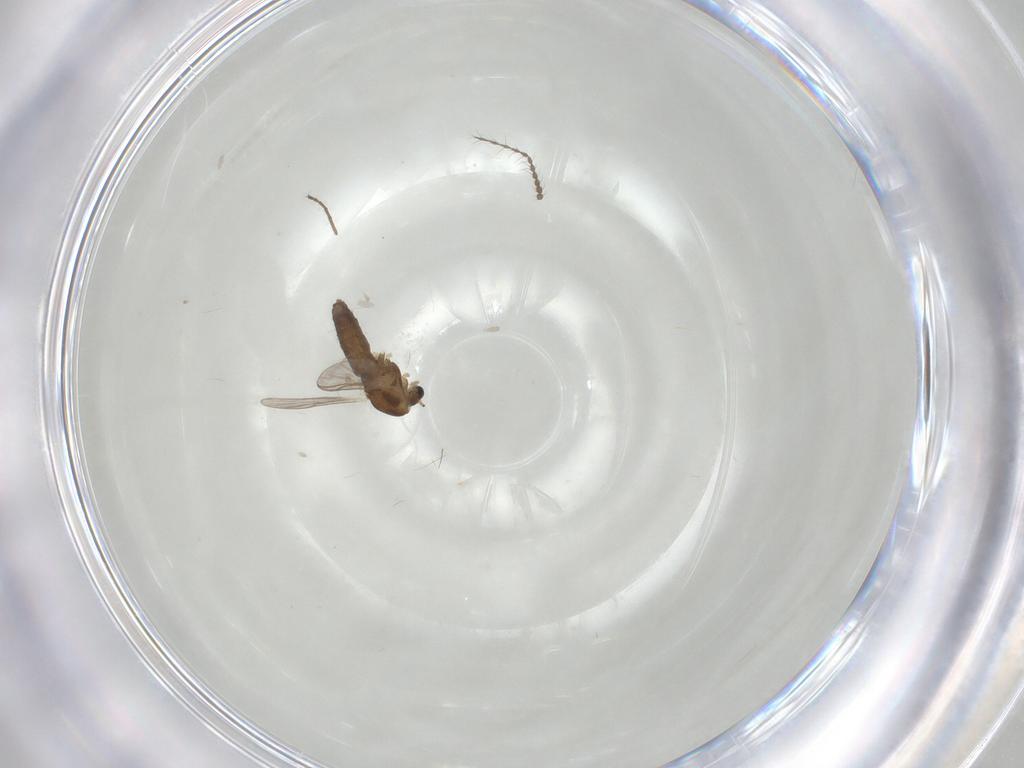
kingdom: Animalia
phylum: Arthropoda
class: Insecta
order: Diptera
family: Chironomidae
